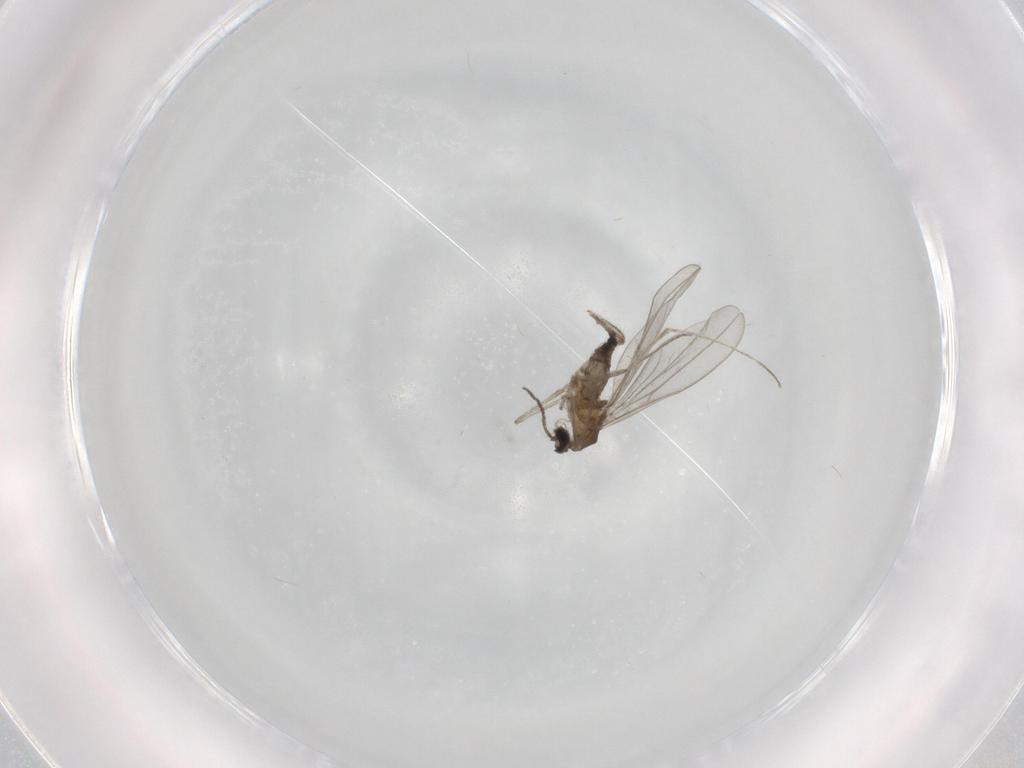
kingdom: Animalia
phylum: Arthropoda
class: Insecta
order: Diptera
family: Cecidomyiidae
